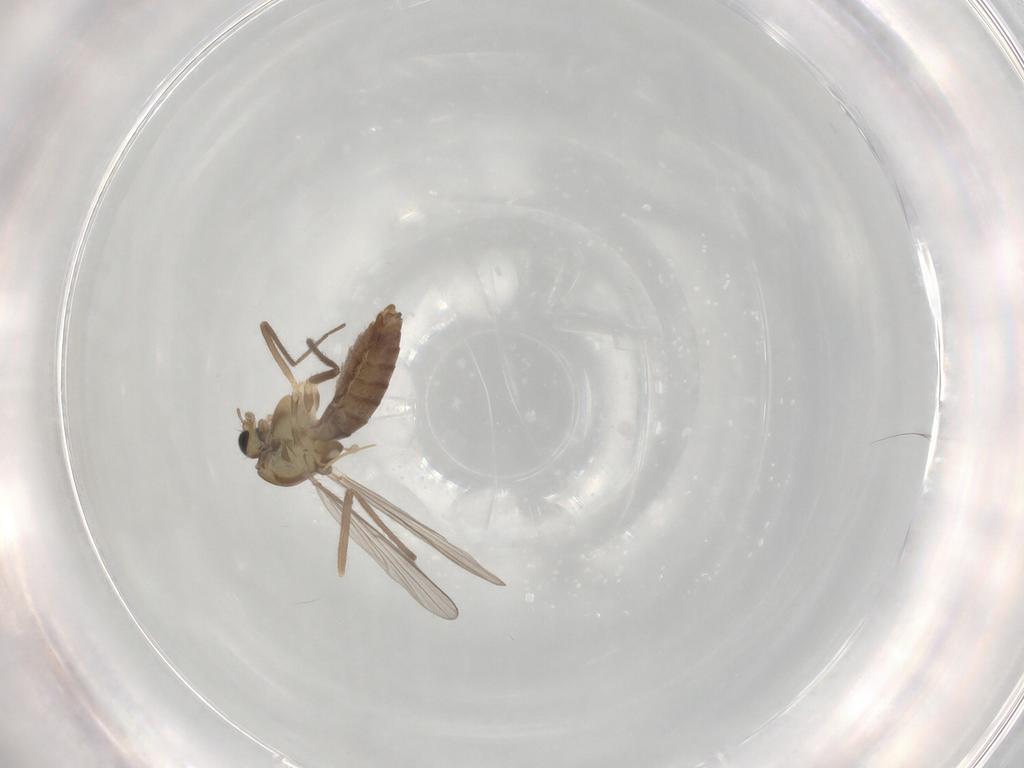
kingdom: Animalia
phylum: Arthropoda
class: Insecta
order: Diptera
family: Chironomidae
